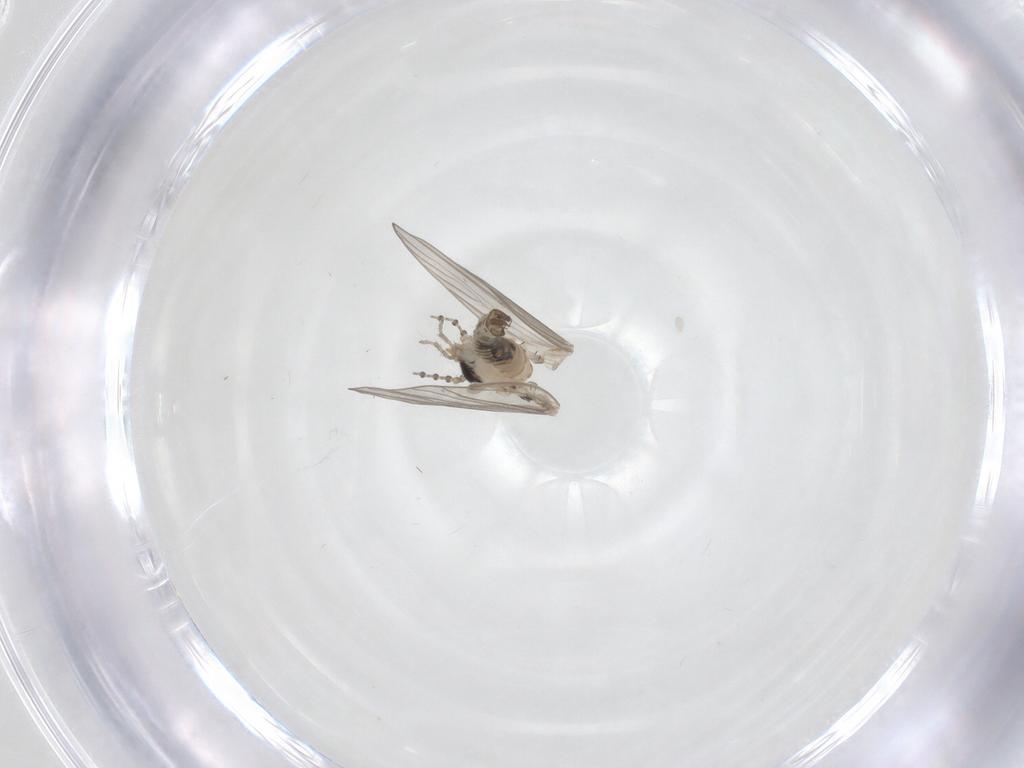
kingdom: Animalia
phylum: Arthropoda
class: Insecta
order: Diptera
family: Psychodidae
